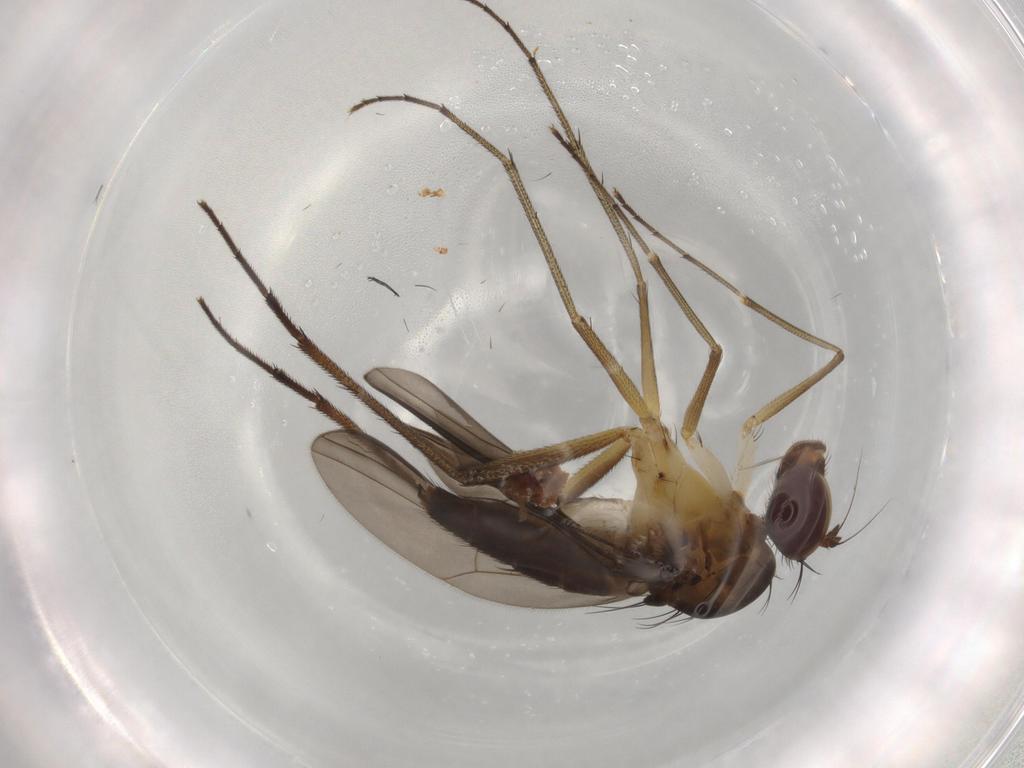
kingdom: Animalia
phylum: Arthropoda
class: Insecta
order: Diptera
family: Dolichopodidae
